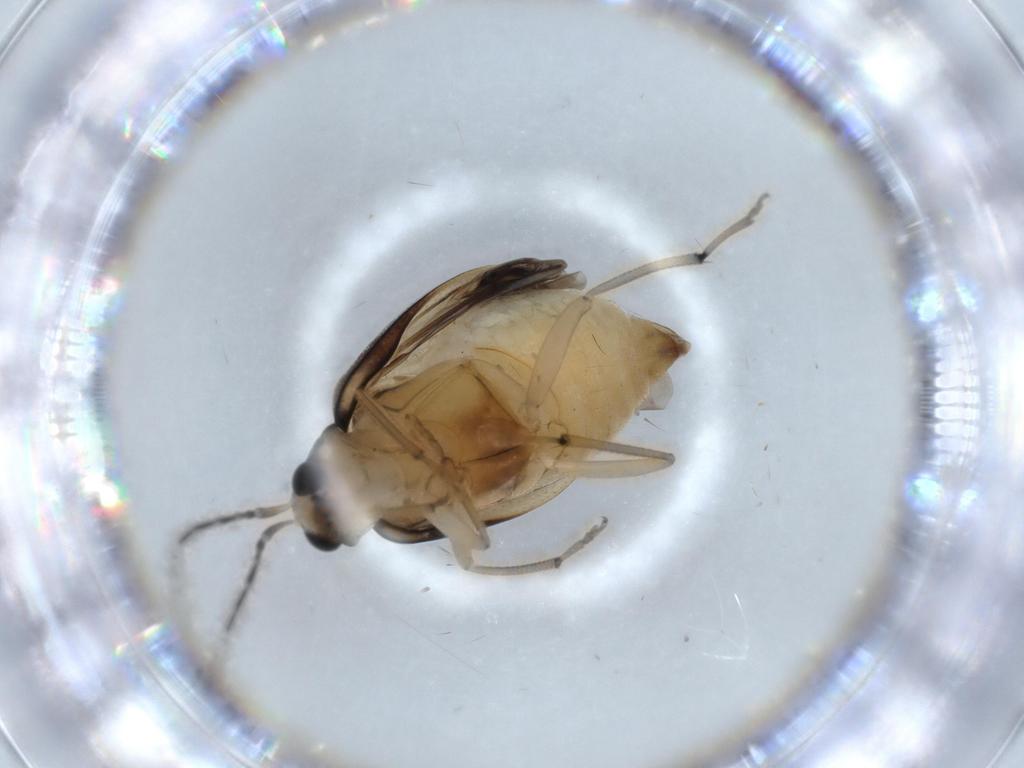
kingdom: Animalia
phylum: Arthropoda
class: Insecta
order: Coleoptera
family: Chrysomelidae
